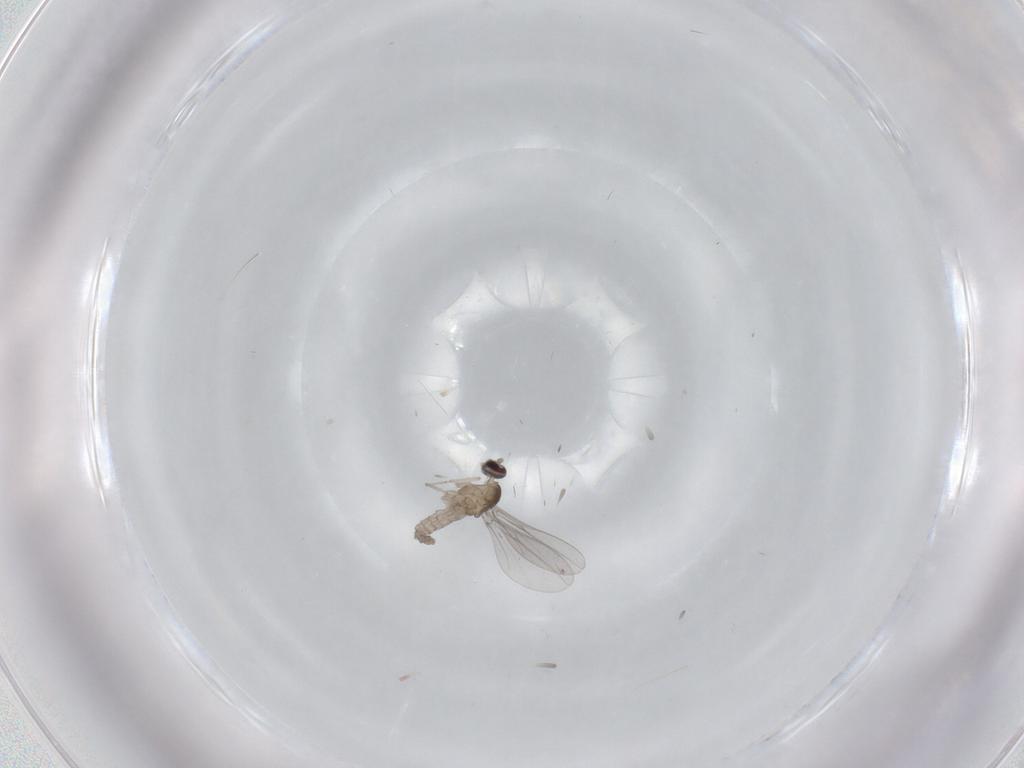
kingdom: Animalia
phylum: Arthropoda
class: Insecta
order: Diptera
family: Cecidomyiidae
